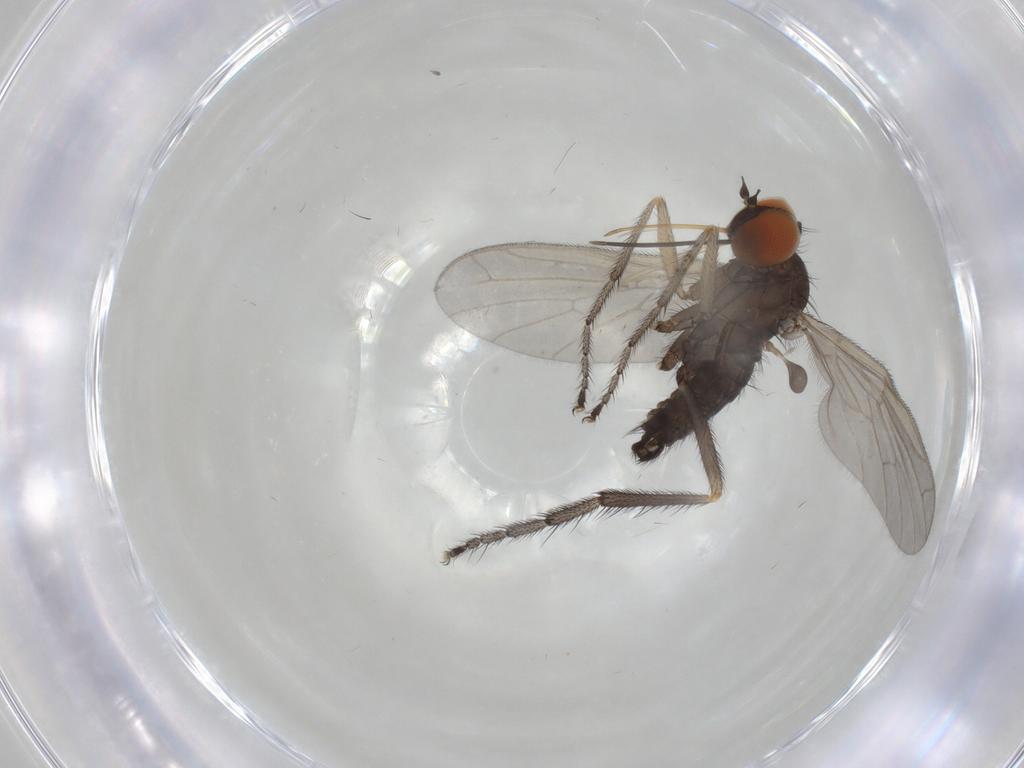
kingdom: Animalia
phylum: Arthropoda
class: Insecta
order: Diptera
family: Empididae
